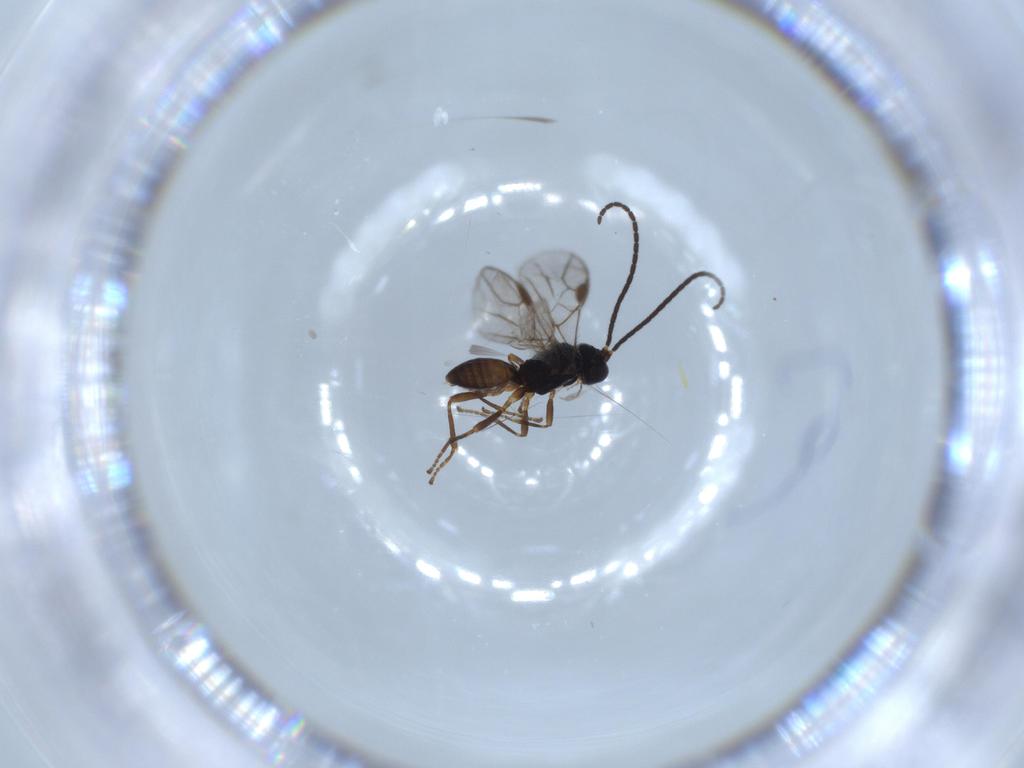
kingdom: Animalia
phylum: Arthropoda
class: Insecta
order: Hymenoptera
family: Braconidae
